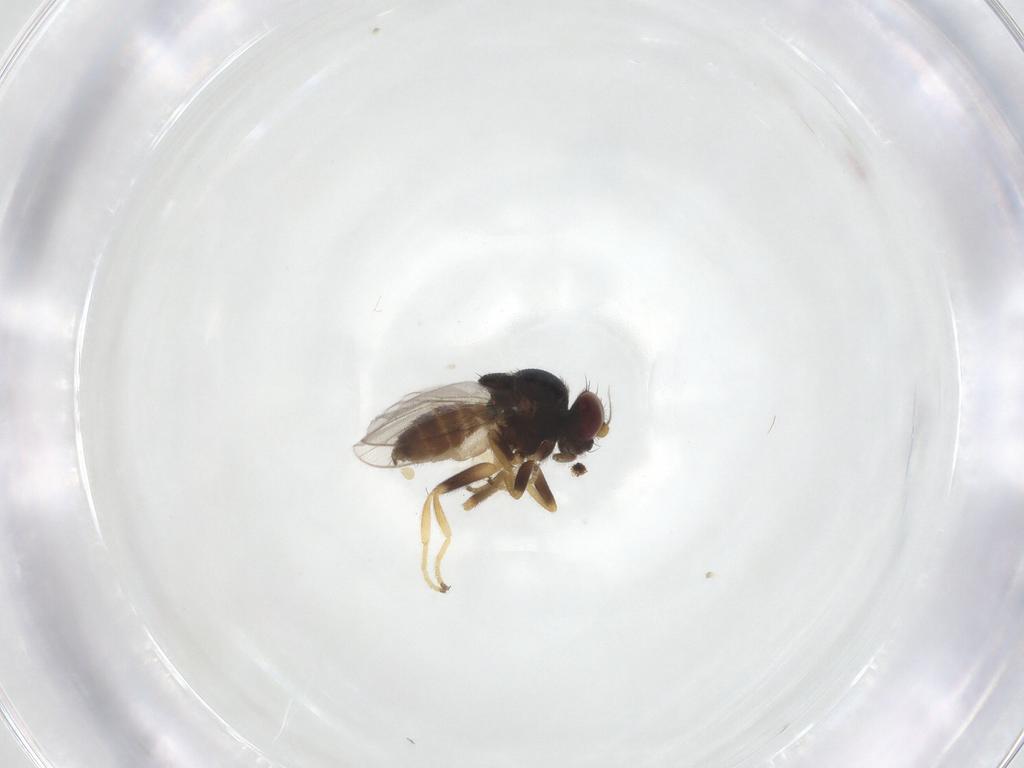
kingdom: Animalia
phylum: Arthropoda
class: Insecta
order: Diptera
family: Chloropidae
